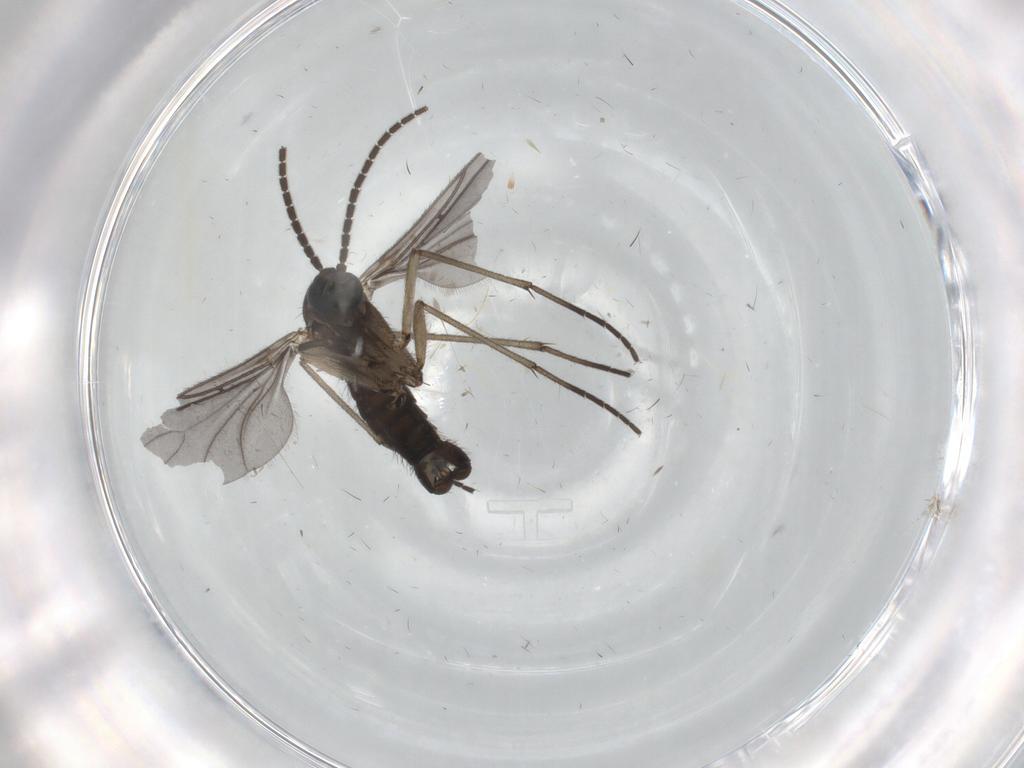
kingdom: Animalia
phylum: Arthropoda
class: Insecta
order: Diptera
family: Sciaridae
